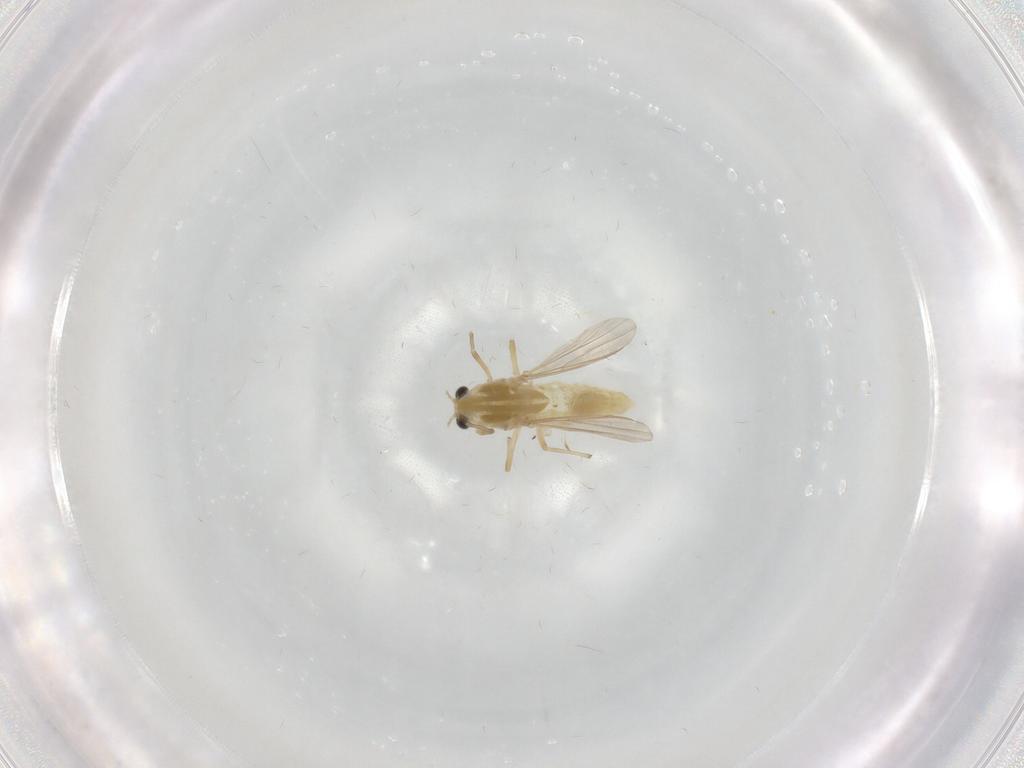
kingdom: Animalia
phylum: Arthropoda
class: Insecta
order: Diptera
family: Chironomidae
